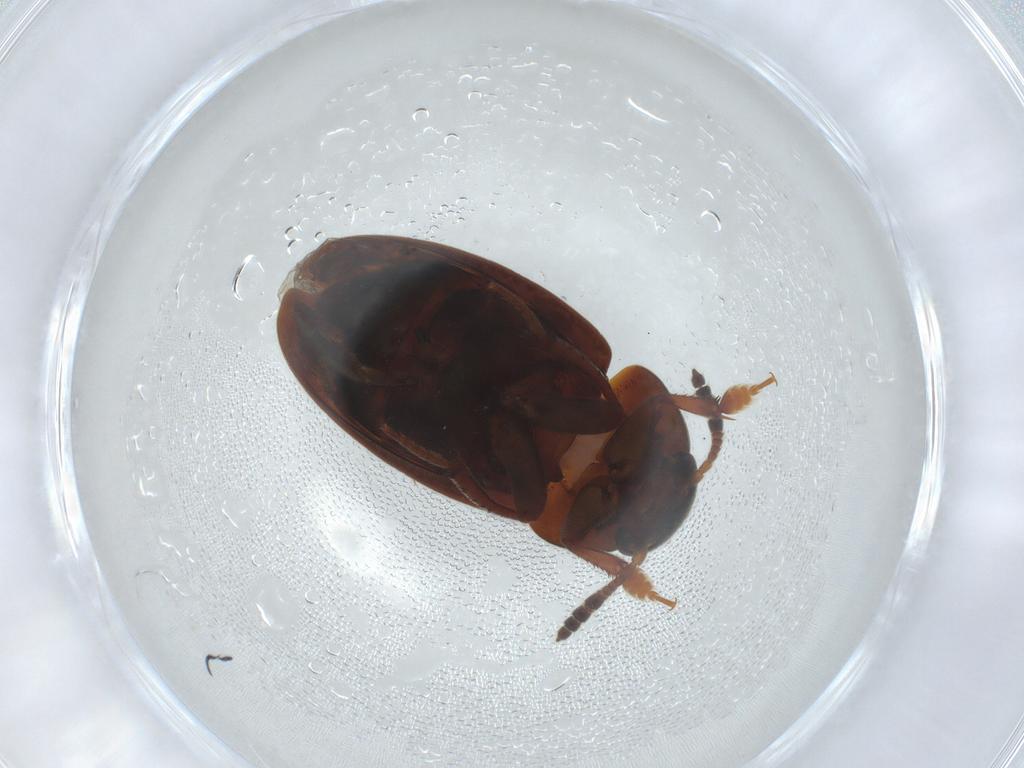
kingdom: Animalia
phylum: Arthropoda
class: Insecta
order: Coleoptera
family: Leiodidae
